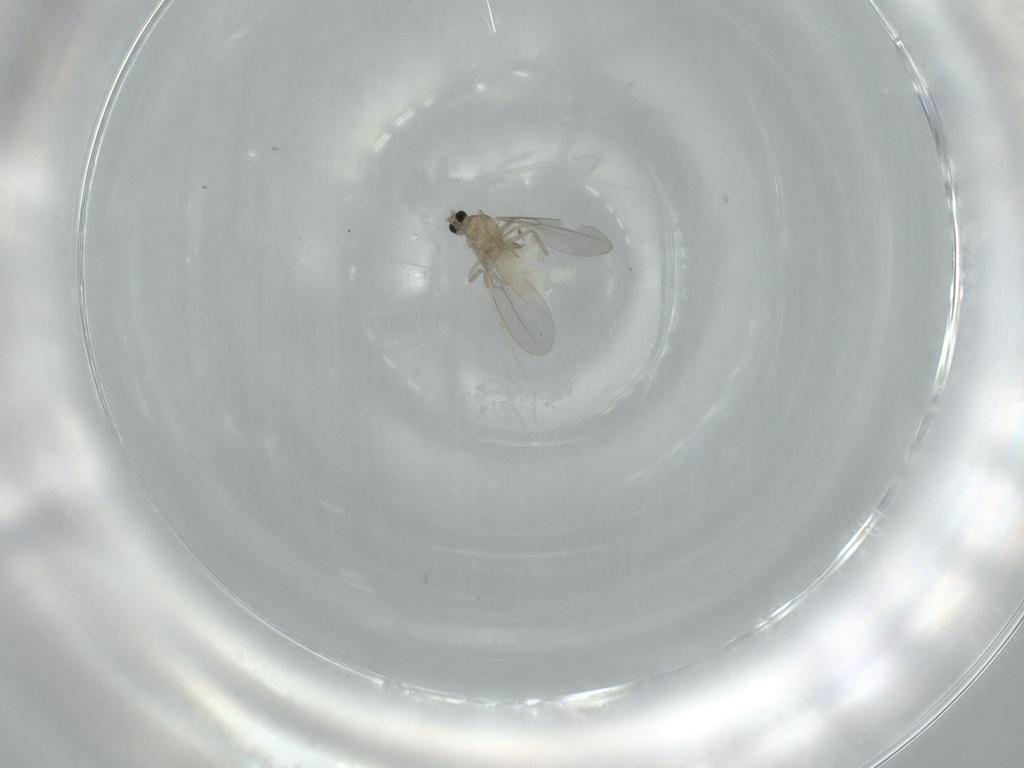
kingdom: Animalia
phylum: Arthropoda
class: Insecta
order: Diptera
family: Cecidomyiidae
